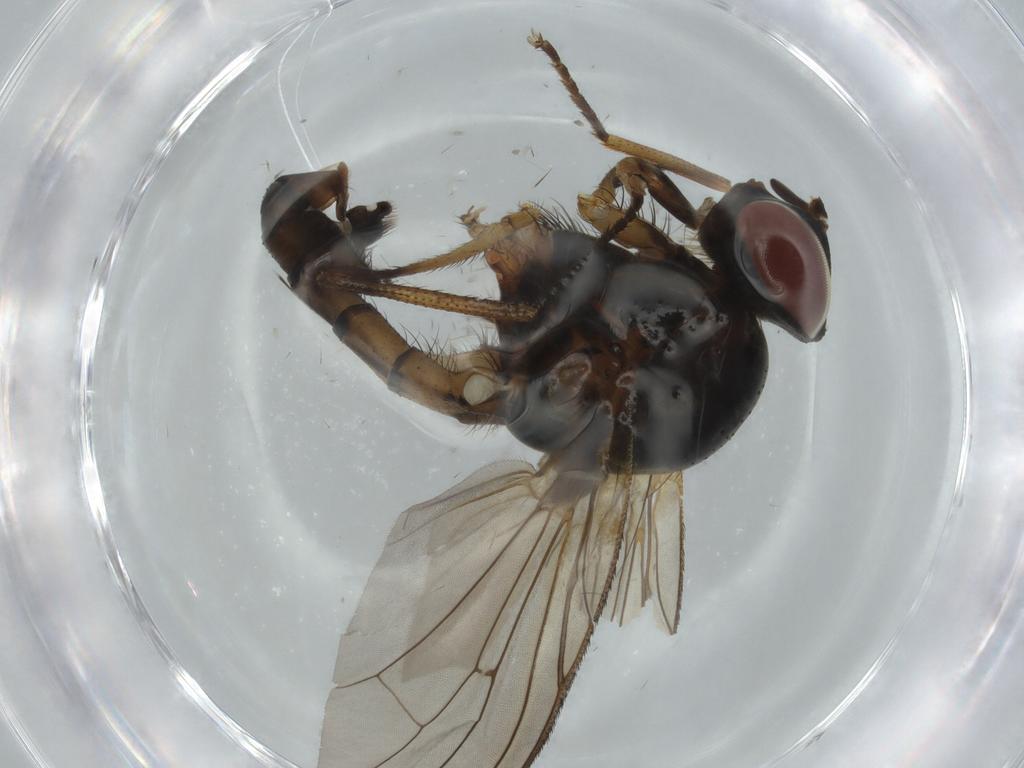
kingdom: Animalia
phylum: Arthropoda
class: Insecta
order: Diptera
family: Anthomyiidae
